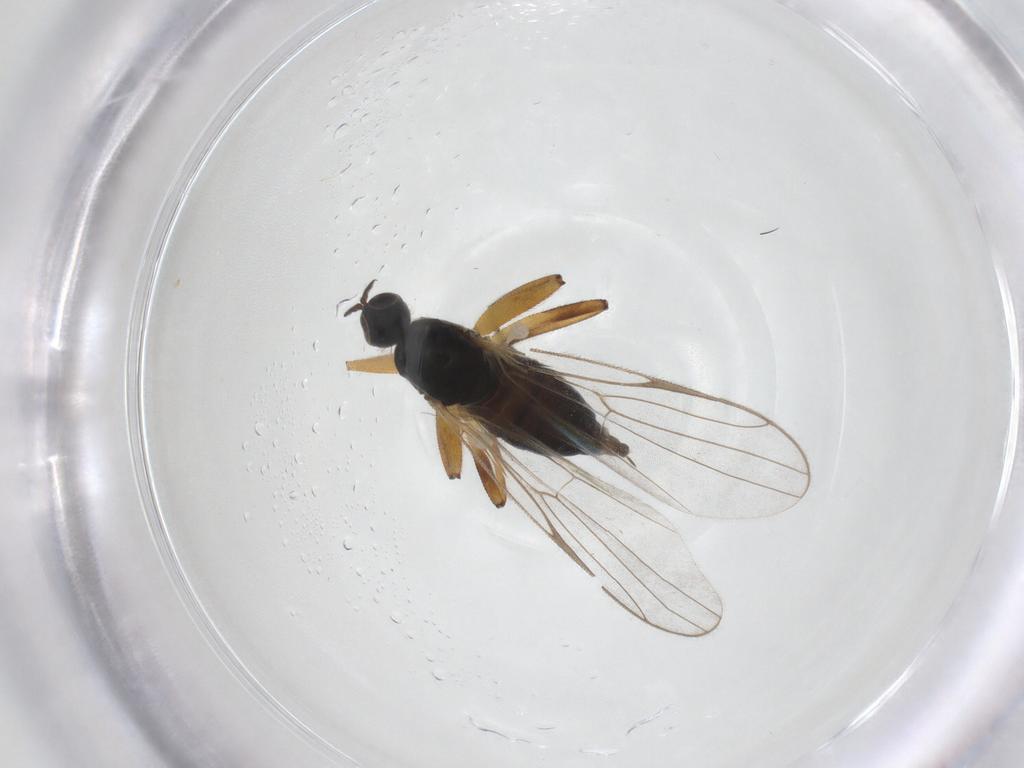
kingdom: Animalia
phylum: Arthropoda
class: Insecta
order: Diptera
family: Hybotidae
